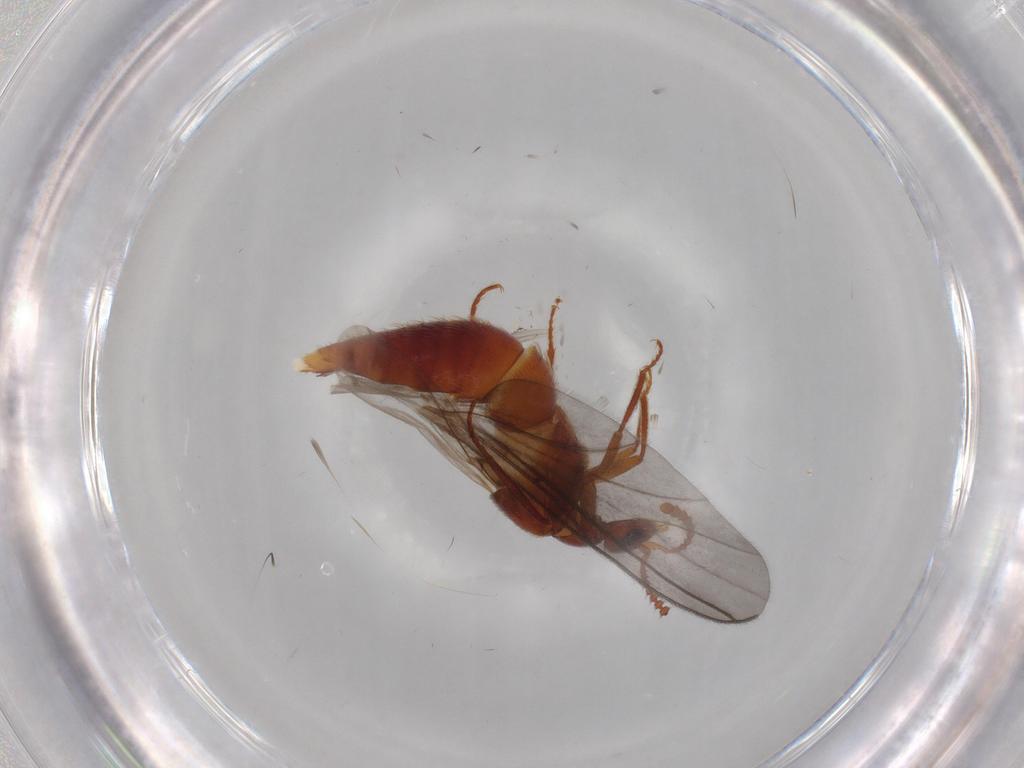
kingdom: Animalia
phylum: Arthropoda
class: Insecta
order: Coleoptera
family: Staphylinidae
